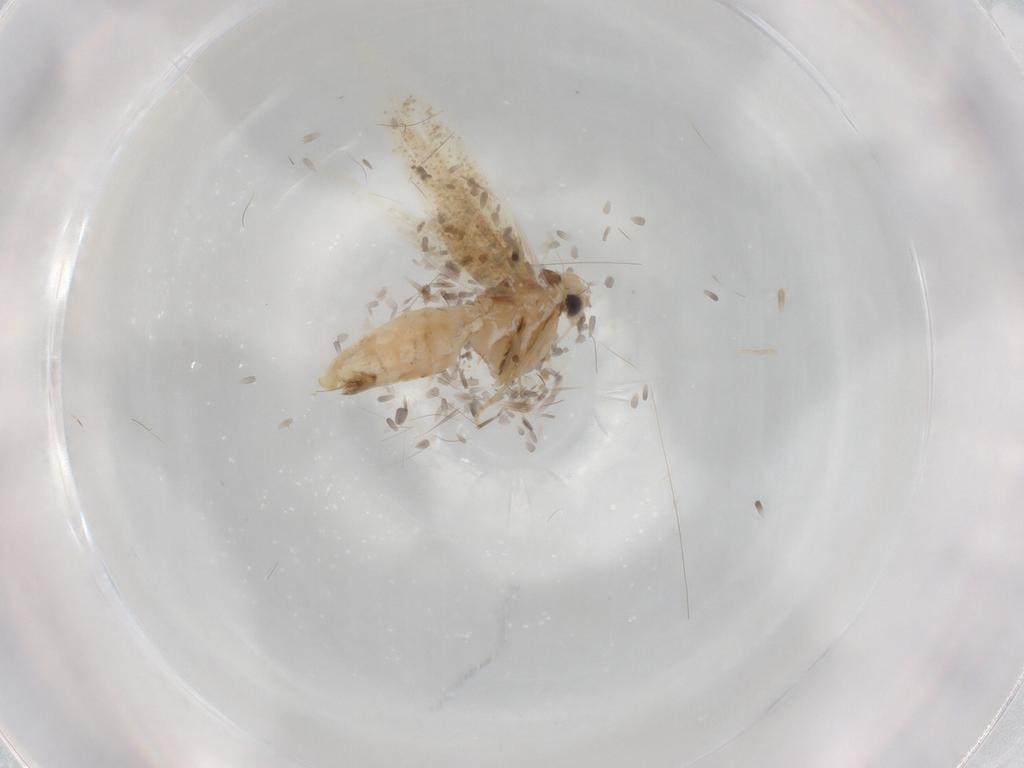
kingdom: Animalia
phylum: Arthropoda
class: Insecta
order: Lepidoptera
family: Bucculatricidae
